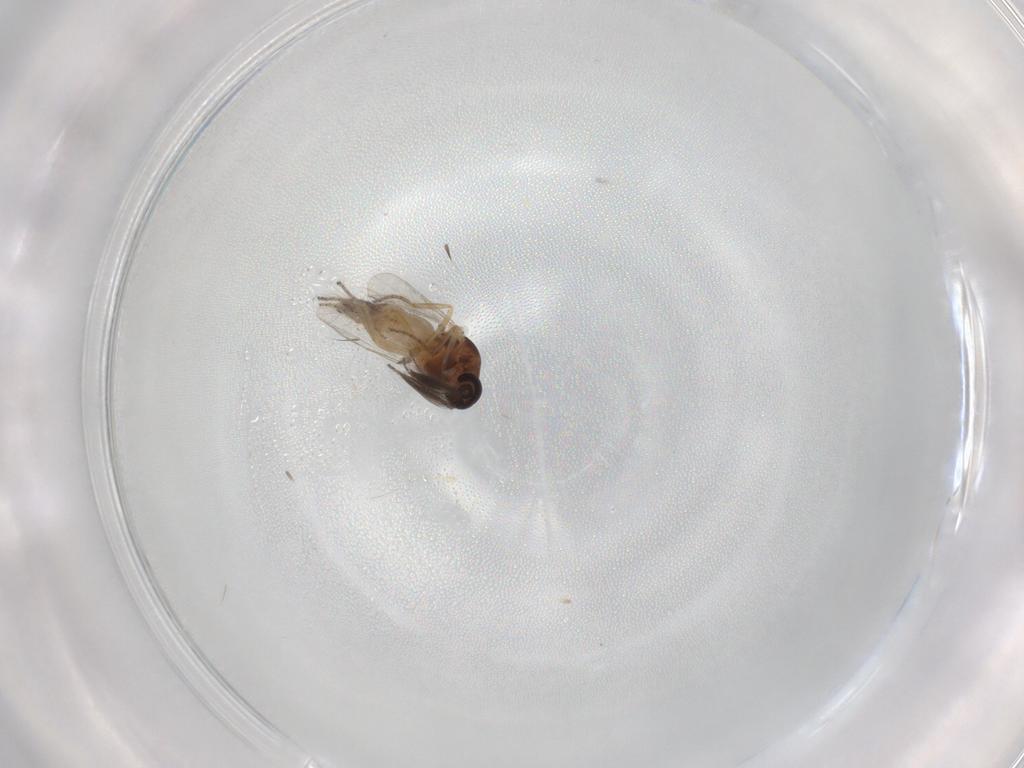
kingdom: Animalia
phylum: Arthropoda
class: Insecta
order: Diptera
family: Ceratopogonidae
